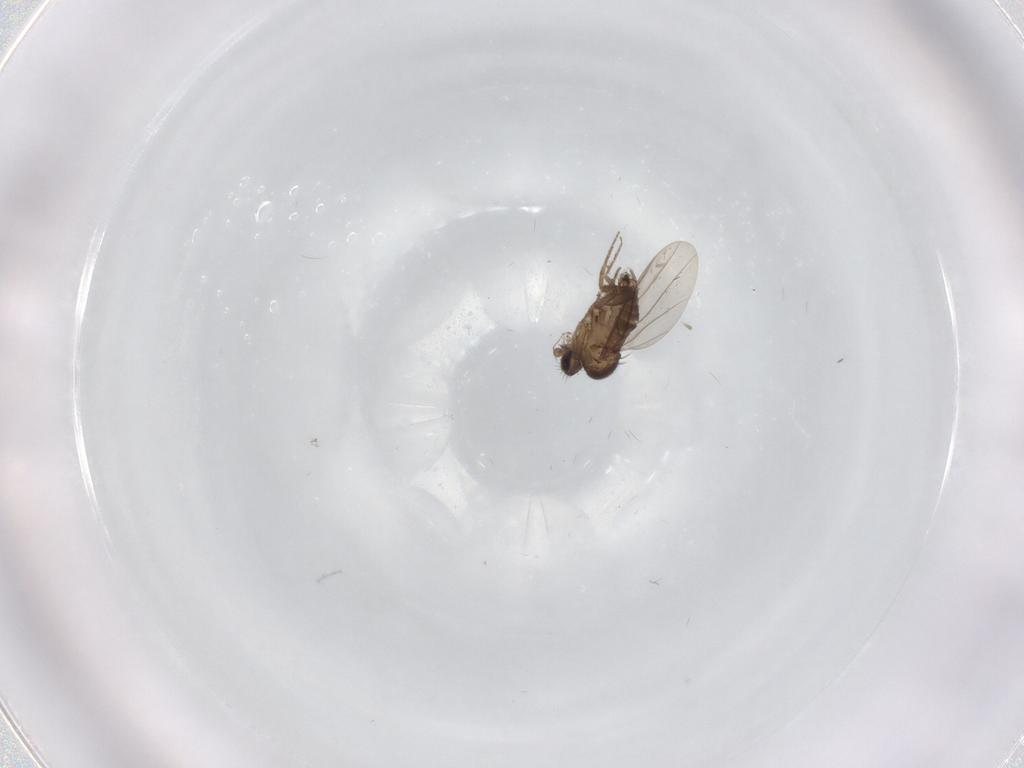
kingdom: Animalia
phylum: Arthropoda
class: Insecta
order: Diptera
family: Phoridae
